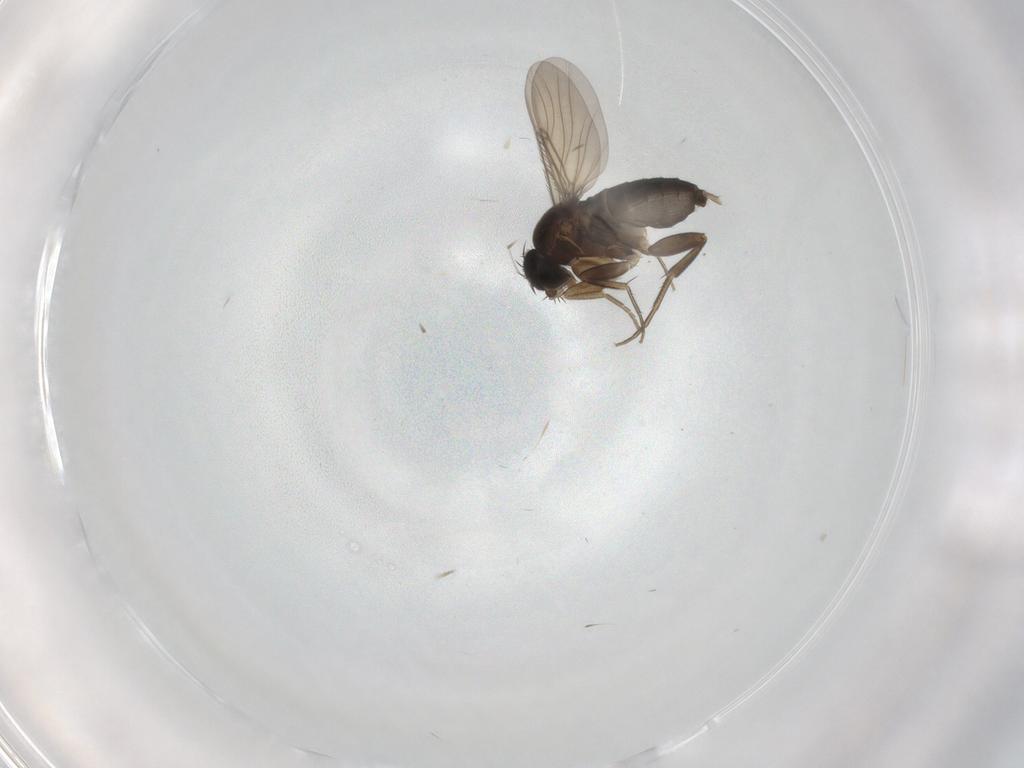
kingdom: Animalia
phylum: Arthropoda
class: Insecta
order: Diptera
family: Phoridae
